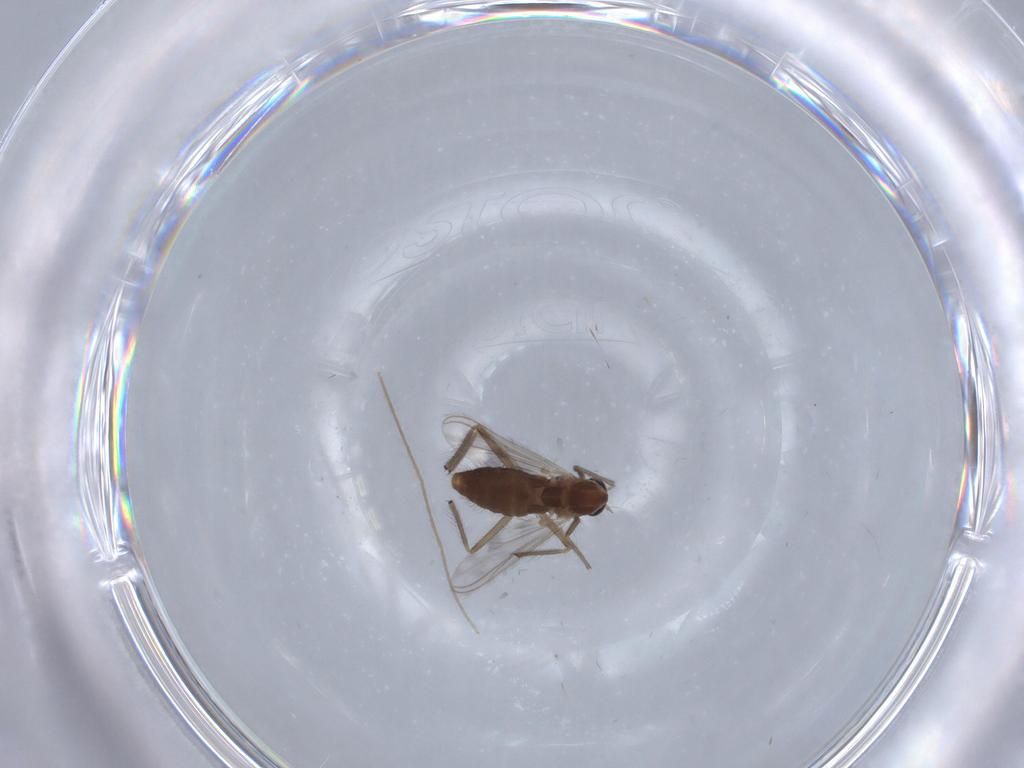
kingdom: Animalia
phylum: Arthropoda
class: Insecta
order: Diptera
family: Chironomidae
